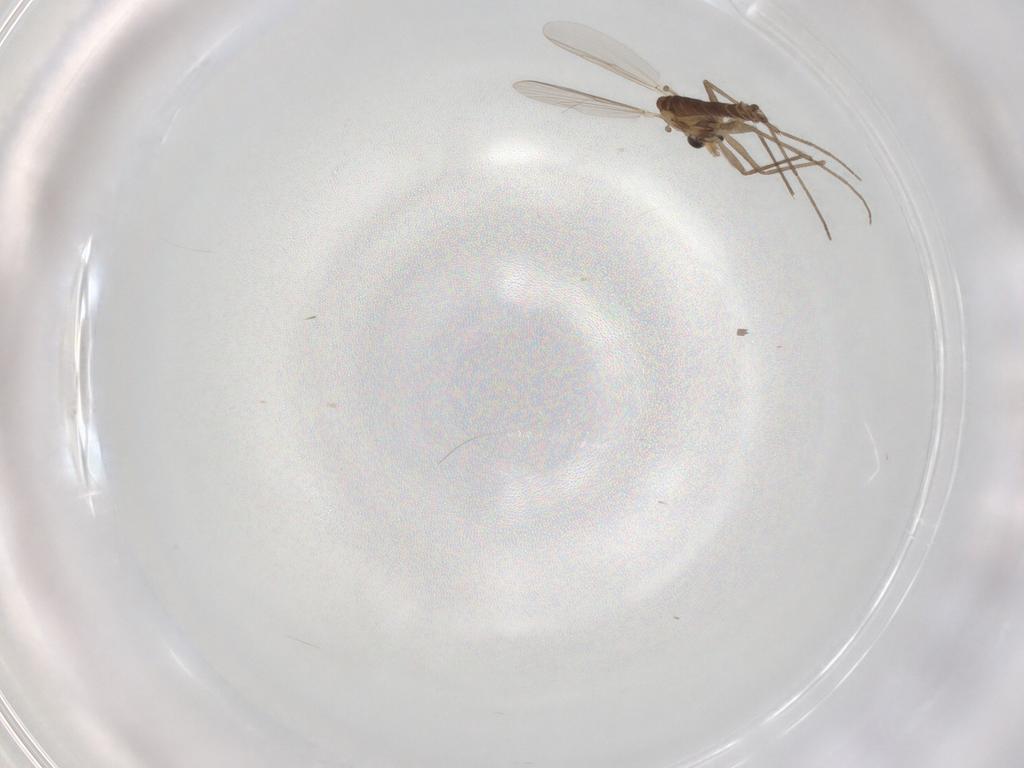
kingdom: Animalia
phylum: Arthropoda
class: Insecta
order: Diptera
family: Chironomidae
